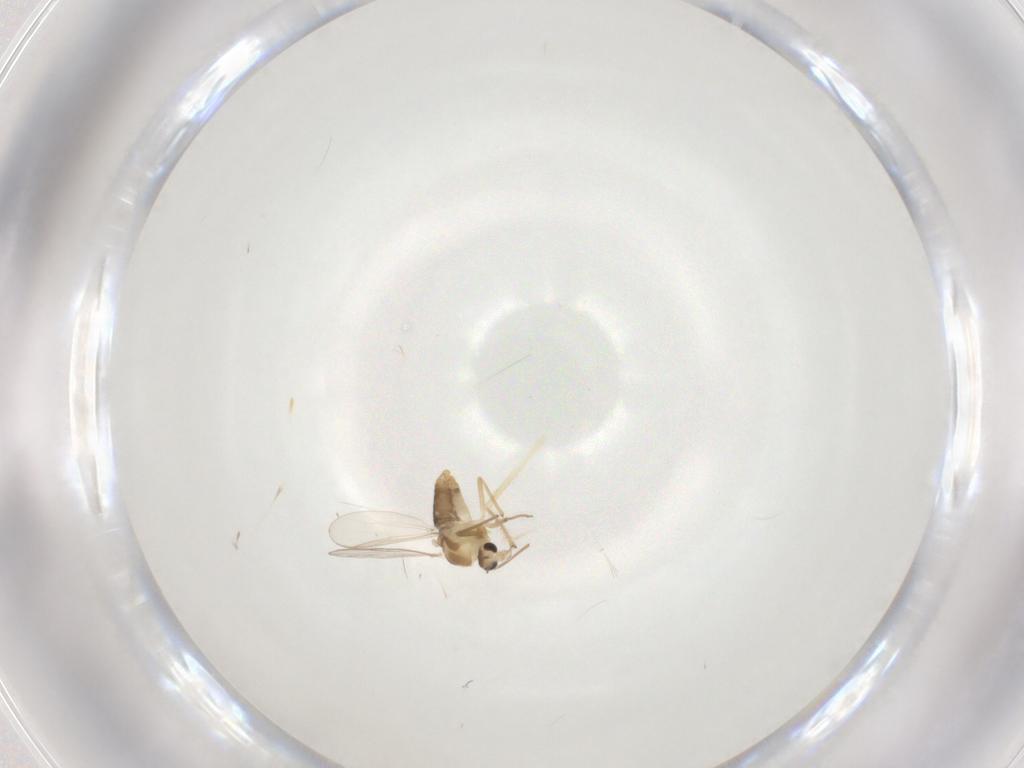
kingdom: Animalia
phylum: Arthropoda
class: Insecta
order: Diptera
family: Chironomidae
